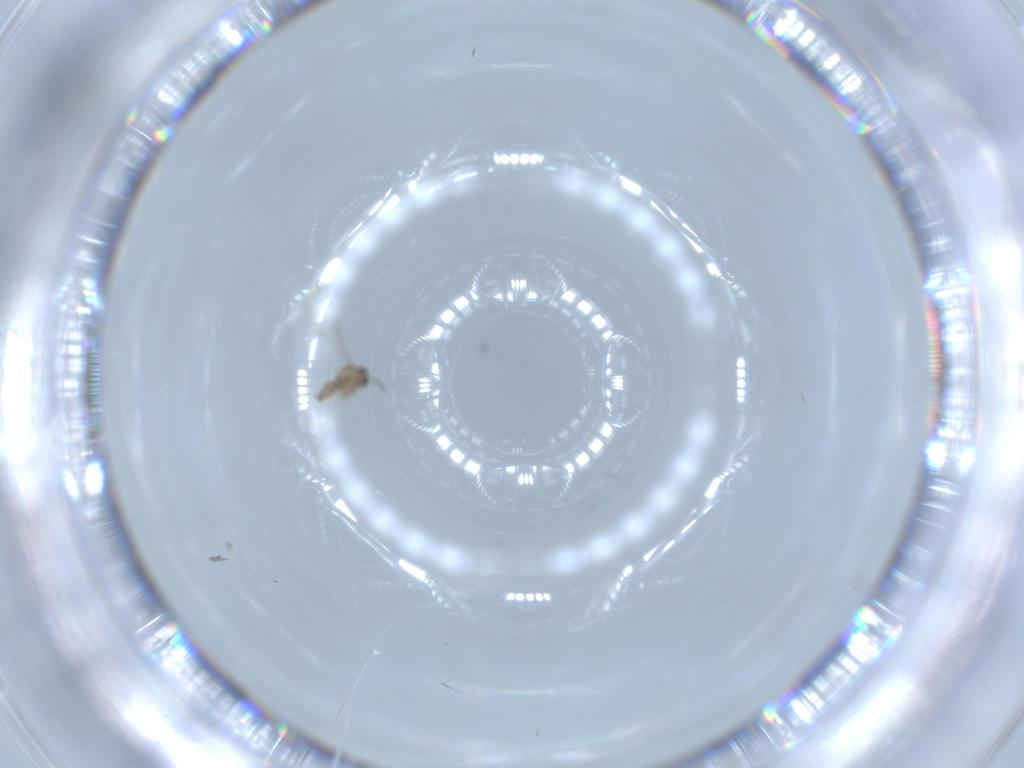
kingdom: Animalia
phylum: Arthropoda
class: Insecta
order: Diptera
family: Cecidomyiidae
